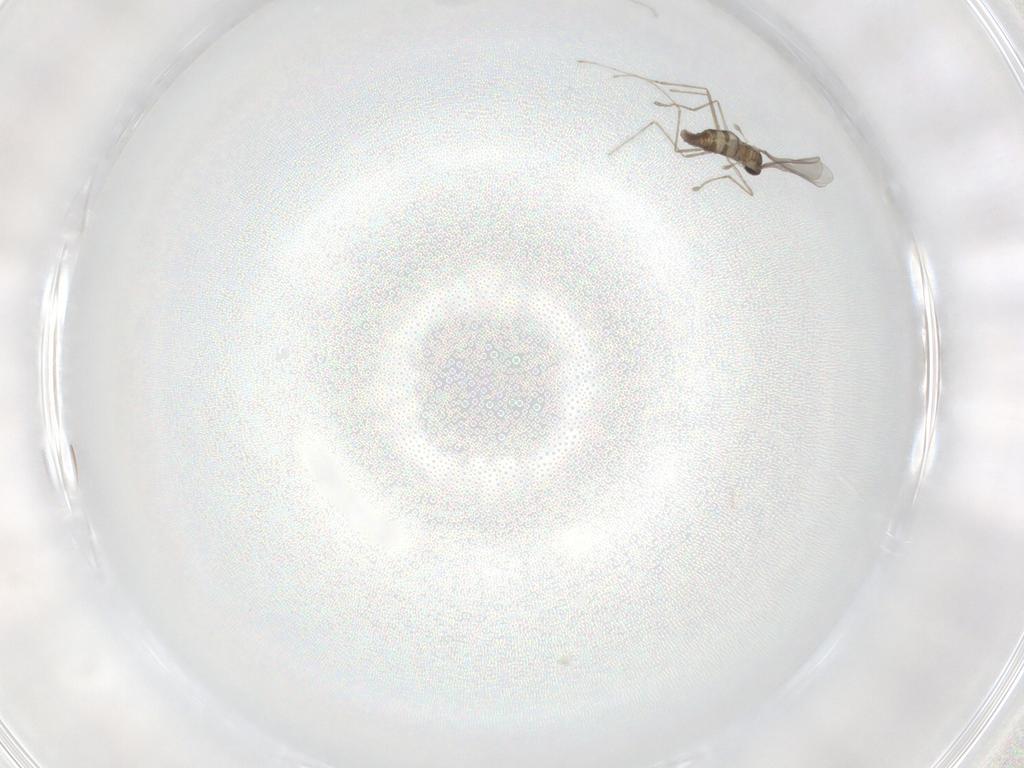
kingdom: Animalia
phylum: Arthropoda
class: Insecta
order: Diptera
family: Cecidomyiidae
